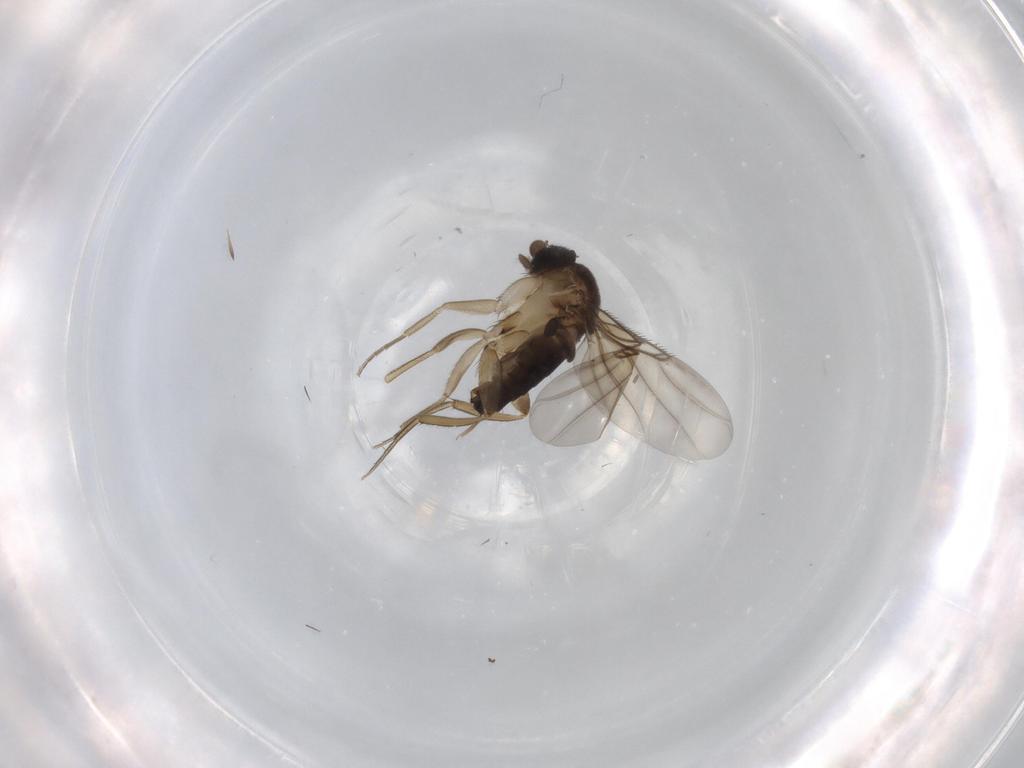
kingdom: Animalia
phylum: Arthropoda
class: Insecta
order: Diptera
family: Phoridae
